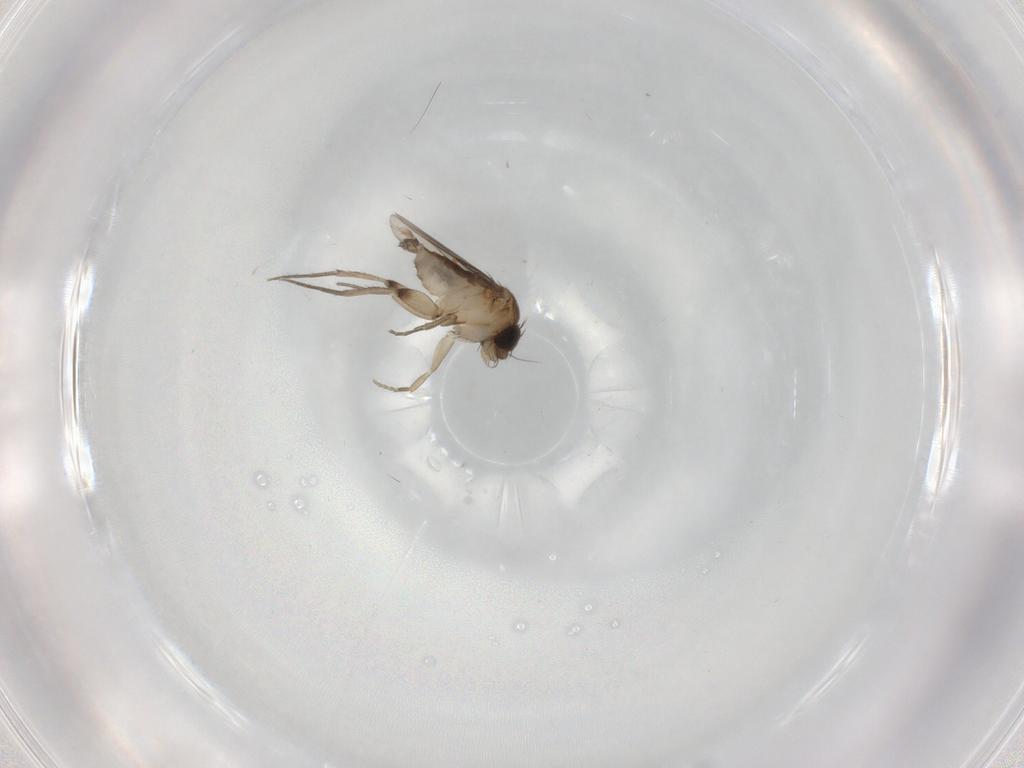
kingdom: Animalia
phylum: Arthropoda
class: Insecta
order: Diptera
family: Phoridae
